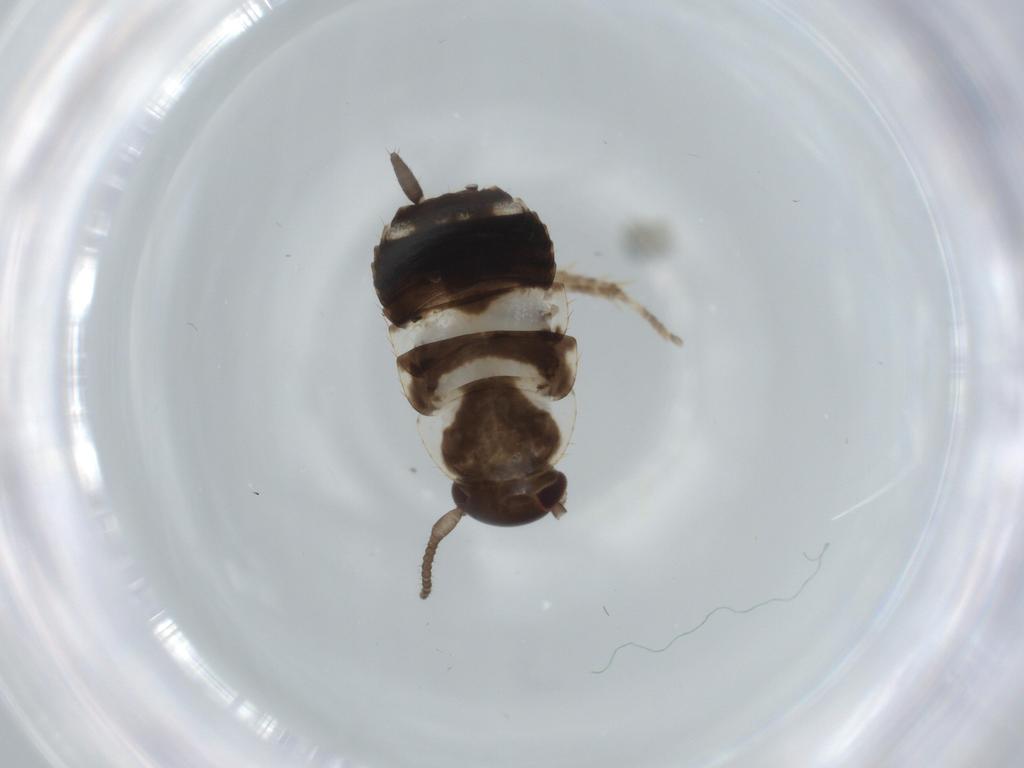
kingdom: Animalia
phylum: Arthropoda
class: Insecta
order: Blattodea
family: Ectobiidae
